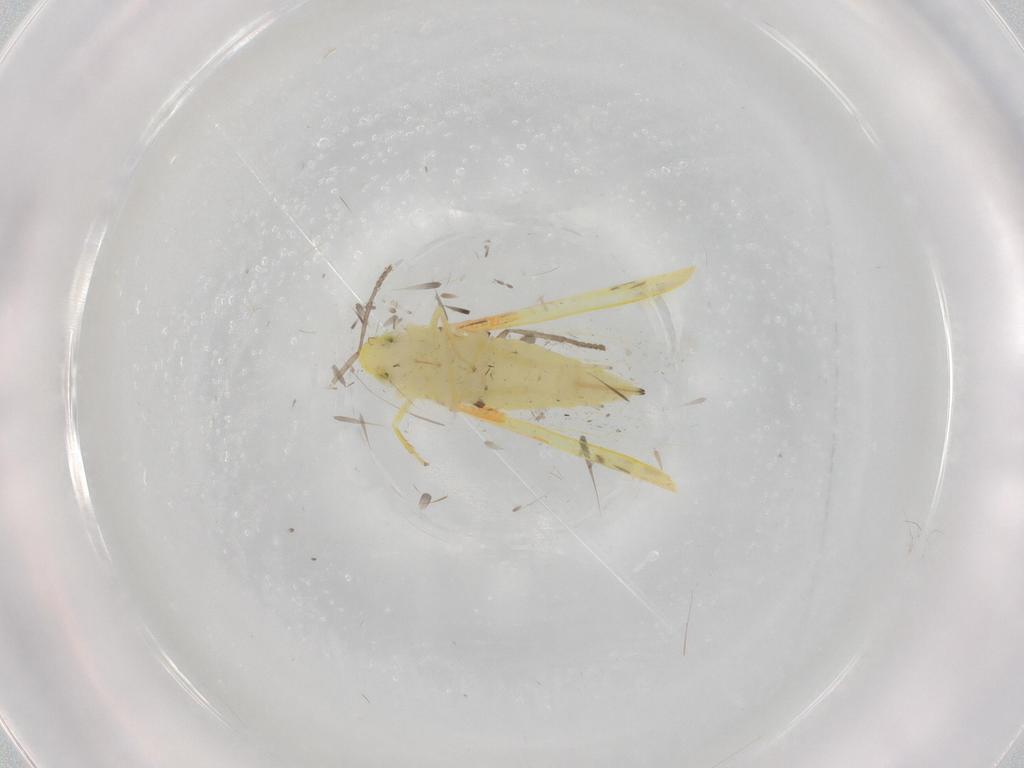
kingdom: Animalia
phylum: Arthropoda
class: Insecta
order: Hemiptera
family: Cicadellidae
